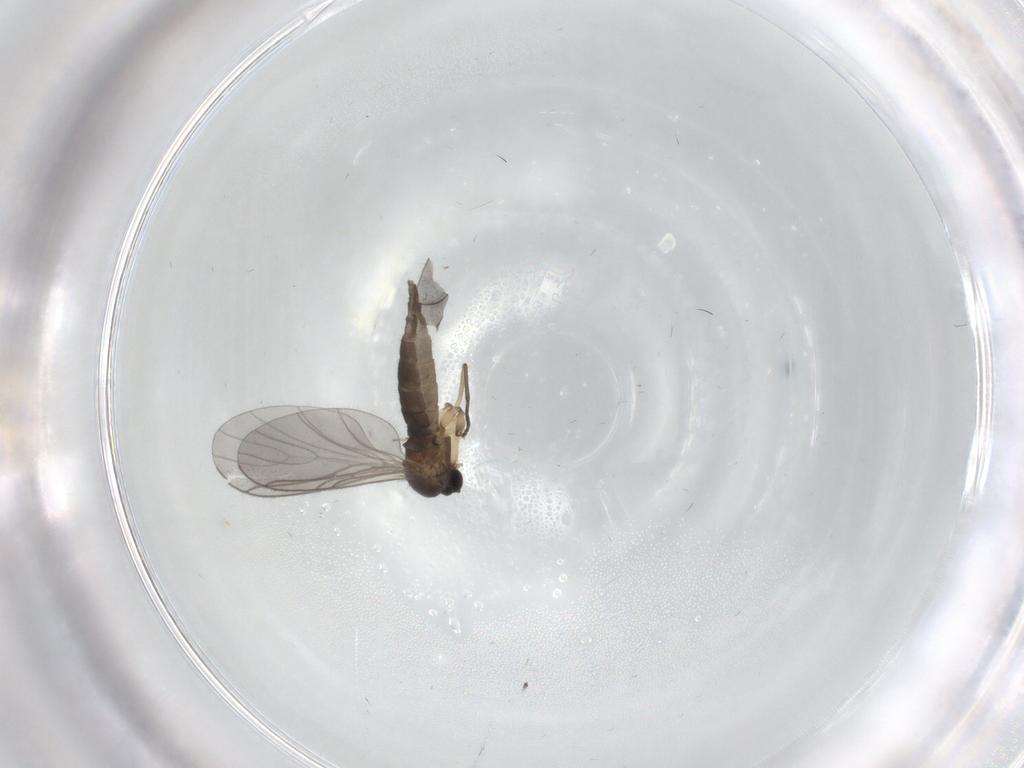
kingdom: Animalia
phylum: Arthropoda
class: Insecta
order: Diptera
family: Sciaridae
